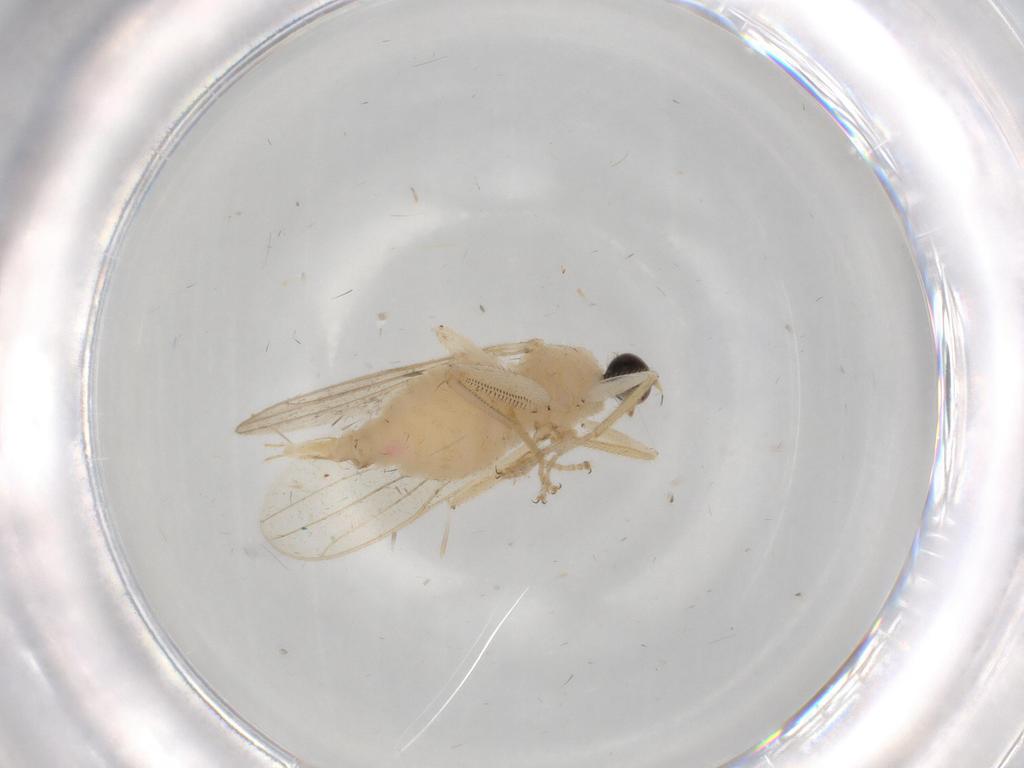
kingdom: Animalia
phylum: Arthropoda
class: Insecta
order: Diptera
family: Hybotidae
